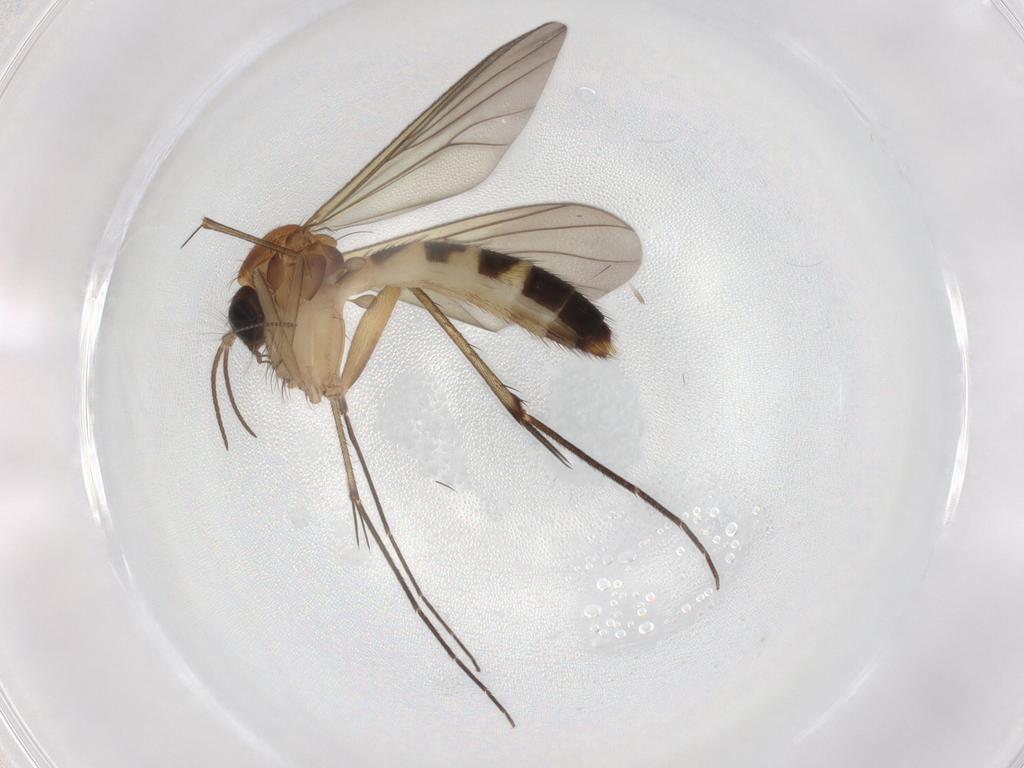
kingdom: Animalia
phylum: Arthropoda
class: Insecta
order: Diptera
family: Mycetophilidae
